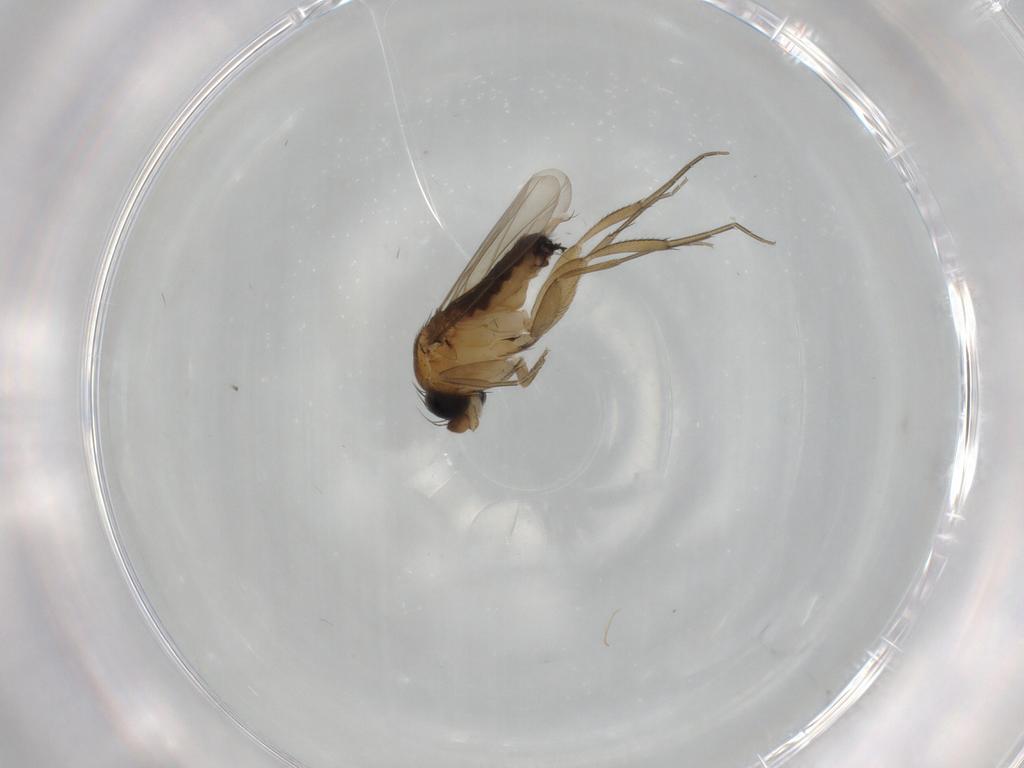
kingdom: Animalia
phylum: Arthropoda
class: Insecta
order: Diptera
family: Phoridae
